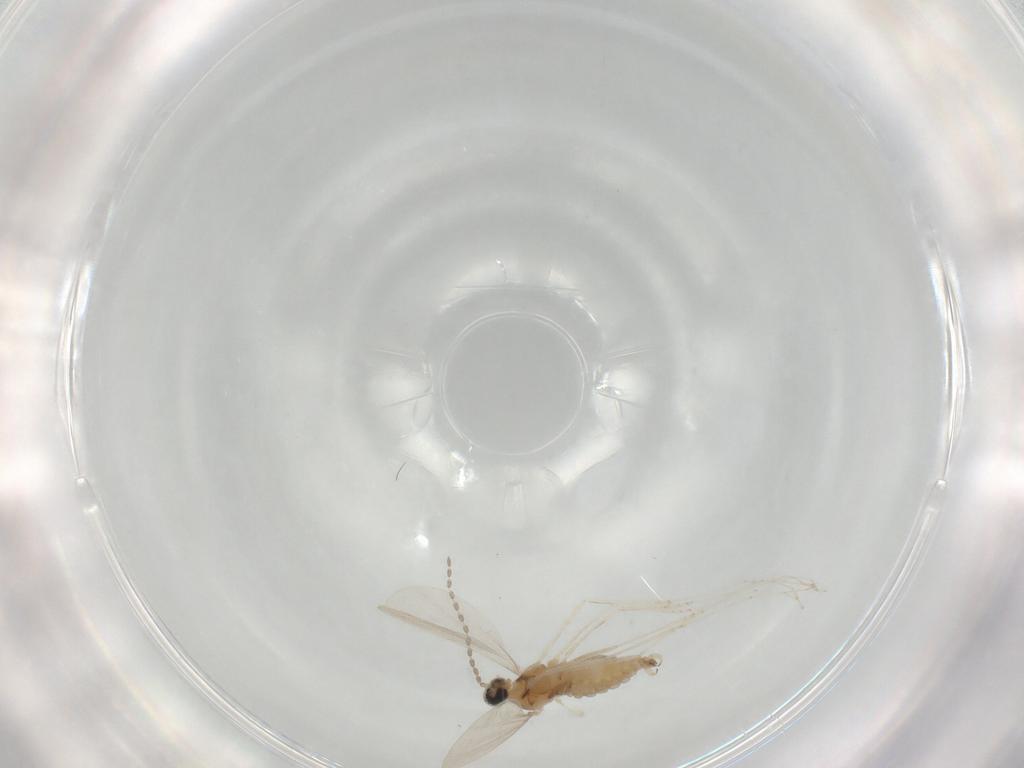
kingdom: Animalia
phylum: Arthropoda
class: Insecta
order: Diptera
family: Cecidomyiidae
